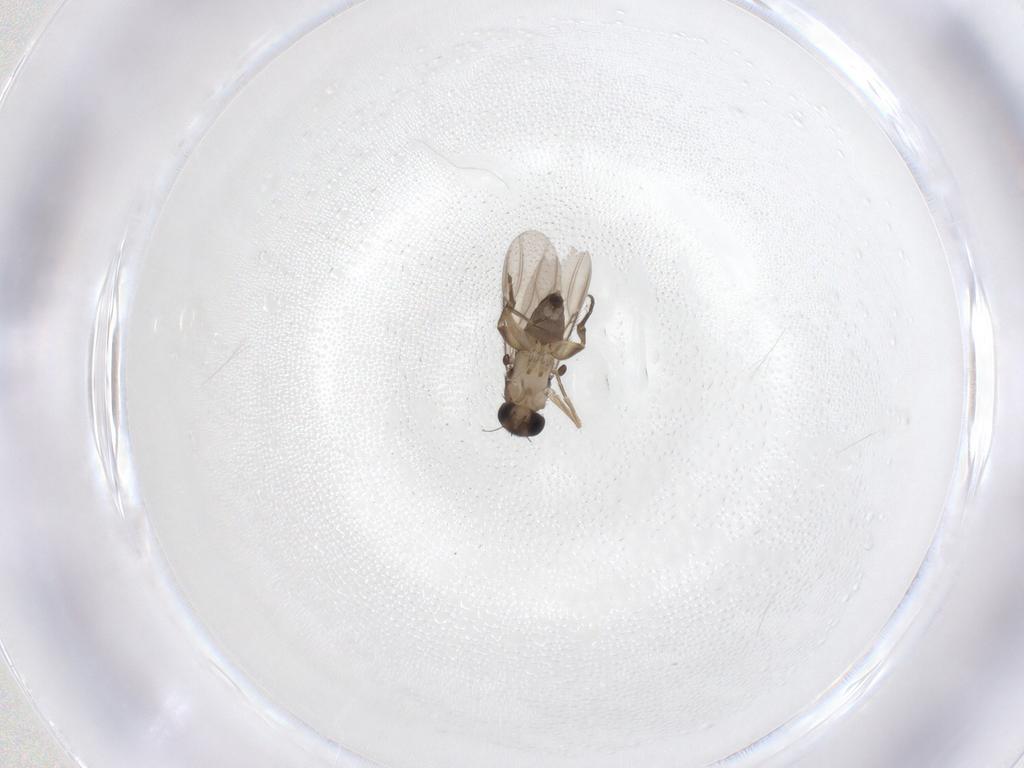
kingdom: Animalia
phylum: Arthropoda
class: Insecta
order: Diptera
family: Phoridae
